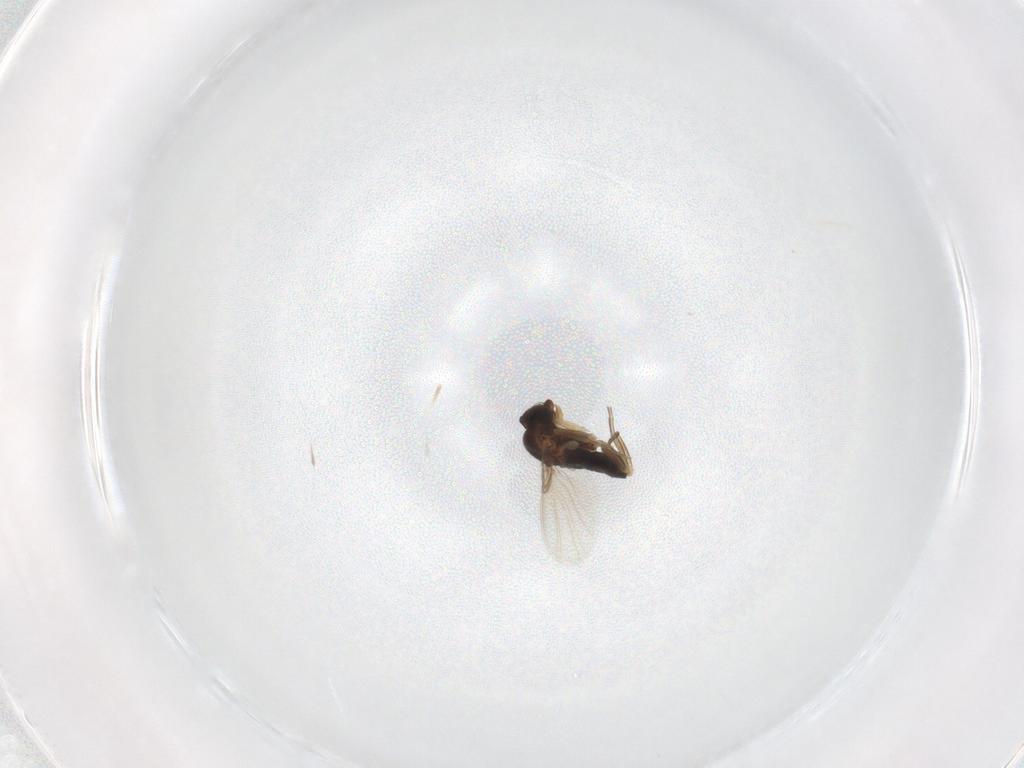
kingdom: Animalia
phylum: Arthropoda
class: Insecta
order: Diptera
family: Phoridae
